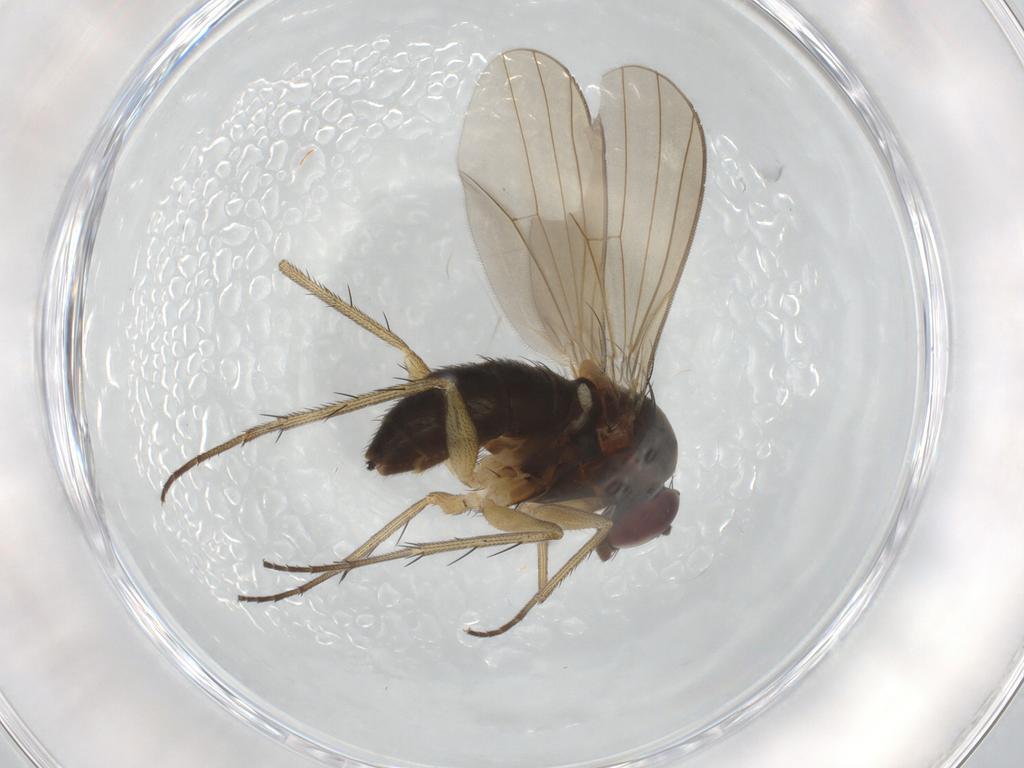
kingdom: Animalia
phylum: Arthropoda
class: Insecta
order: Diptera
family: Dolichopodidae
